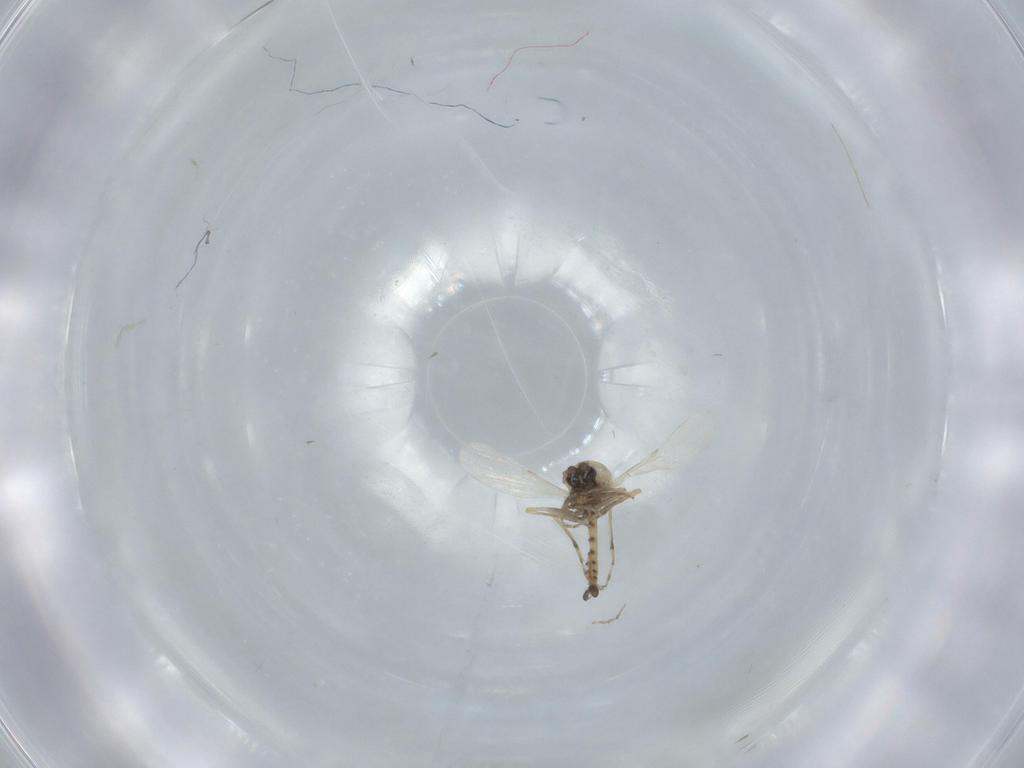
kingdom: Animalia
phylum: Arthropoda
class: Insecta
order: Diptera
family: Ceratopogonidae
